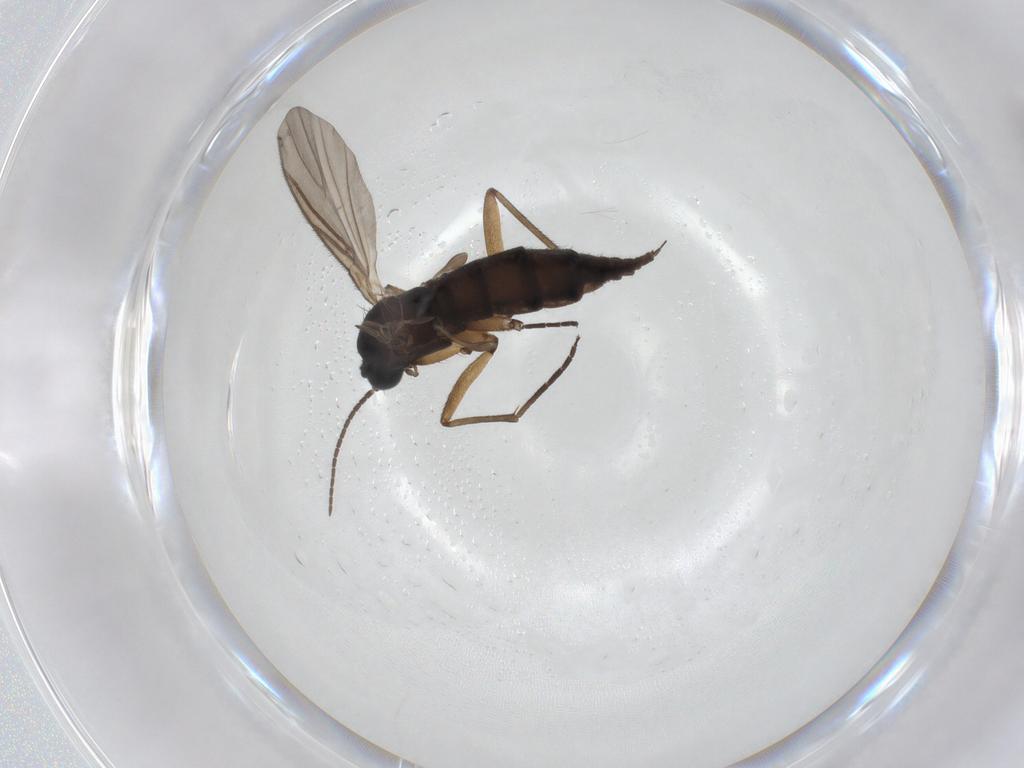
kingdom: Animalia
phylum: Arthropoda
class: Insecta
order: Diptera
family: Sciaridae
